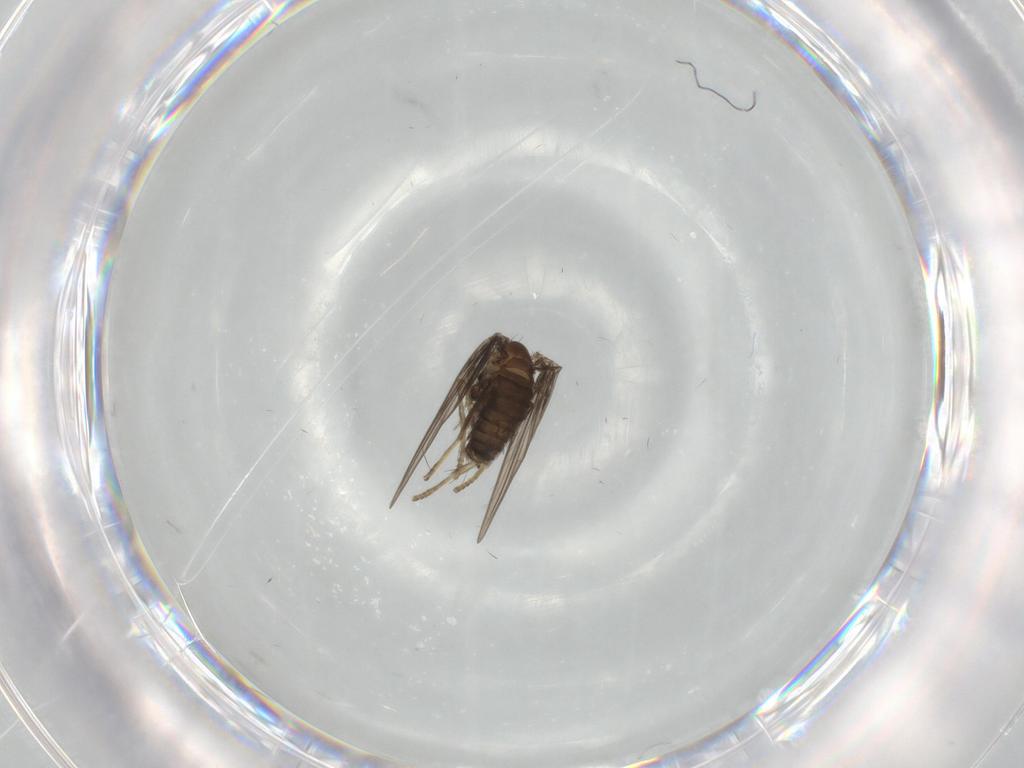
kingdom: Animalia
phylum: Arthropoda
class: Insecta
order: Diptera
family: Psychodidae
